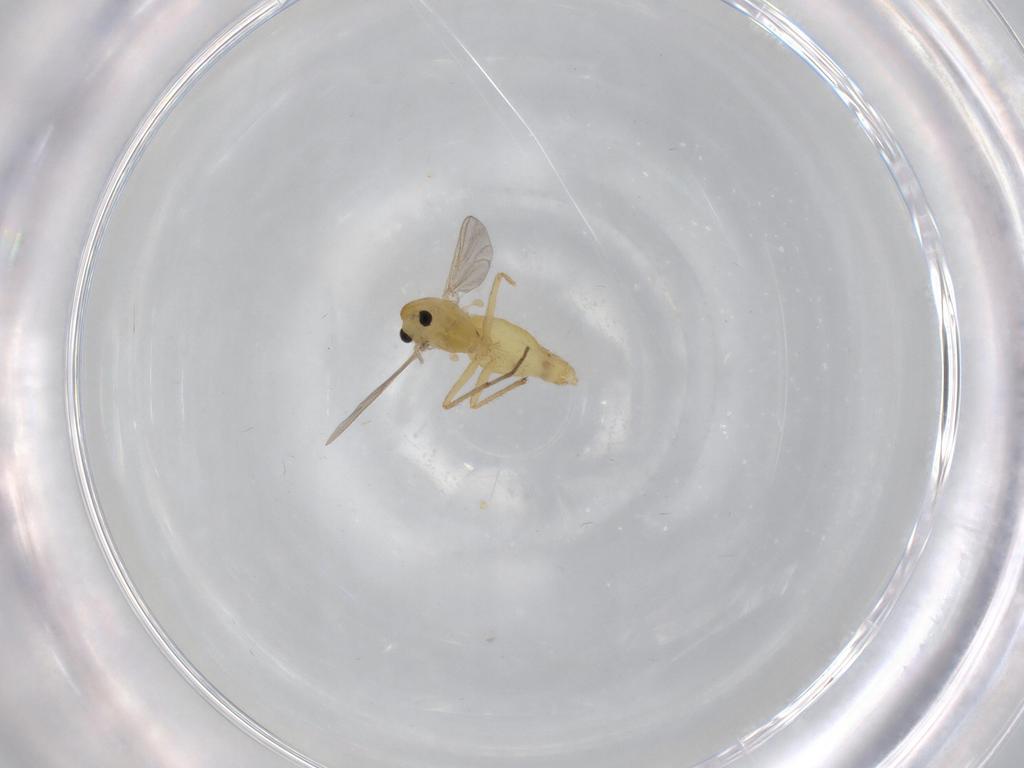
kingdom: Animalia
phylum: Arthropoda
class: Insecta
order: Diptera
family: Chironomidae
